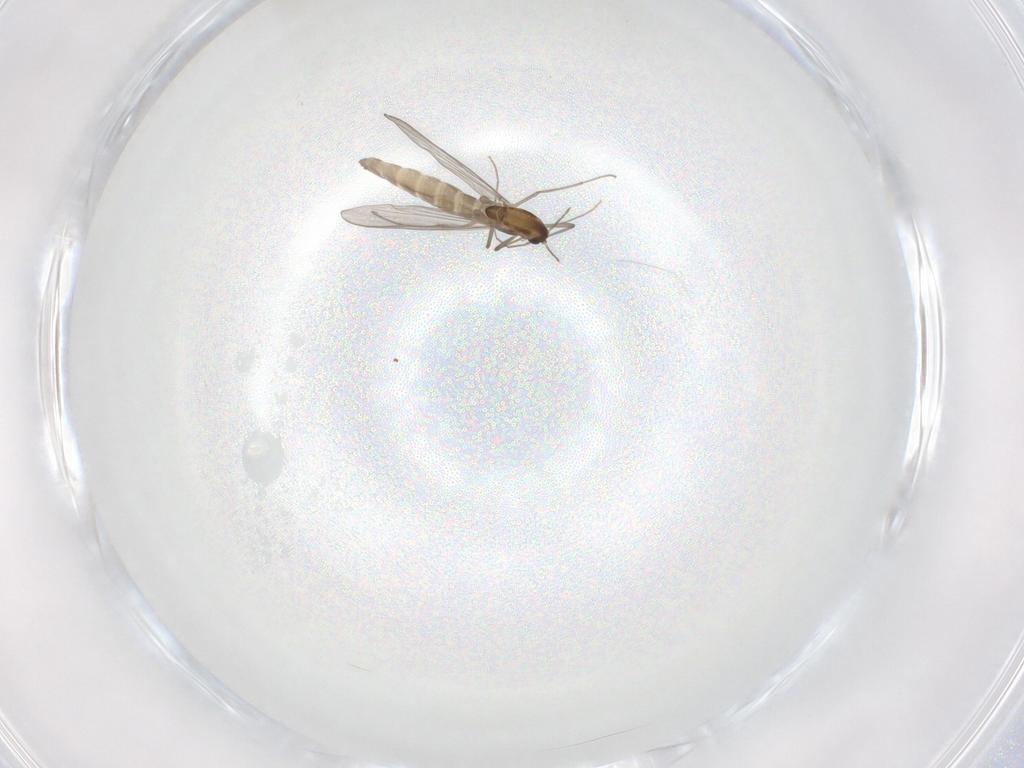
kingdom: Animalia
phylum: Arthropoda
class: Insecta
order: Diptera
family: Chironomidae
